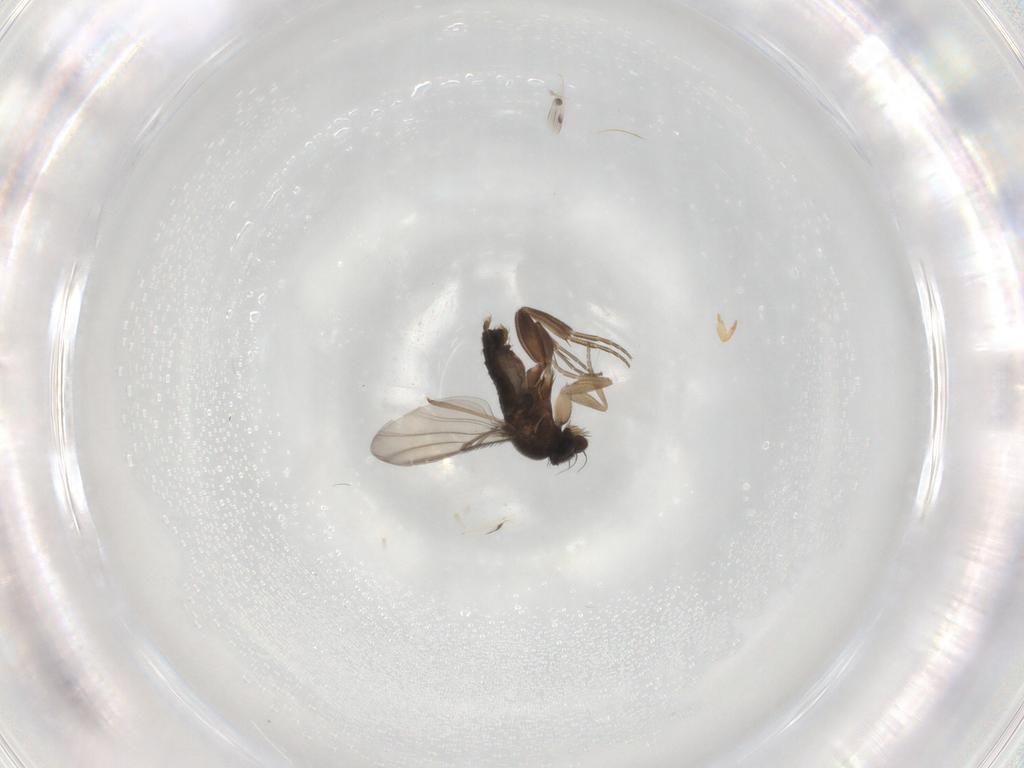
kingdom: Animalia
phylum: Arthropoda
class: Insecta
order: Diptera
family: Phoridae
